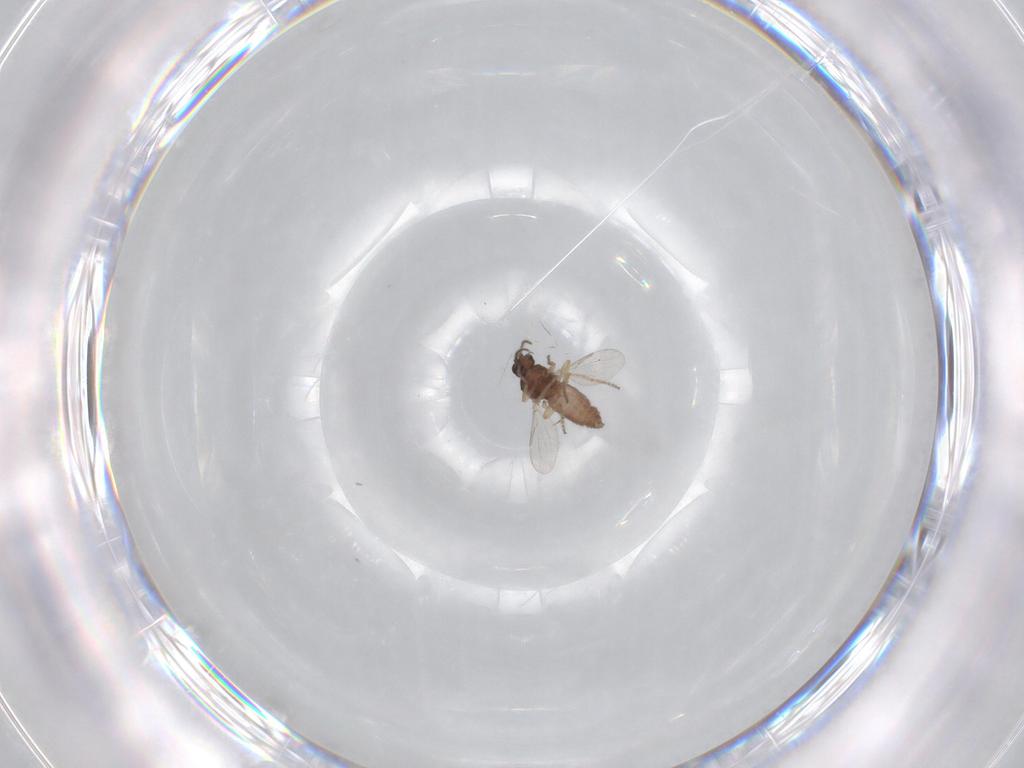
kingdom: Animalia
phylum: Arthropoda
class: Insecta
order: Diptera
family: Ceratopogonidae
